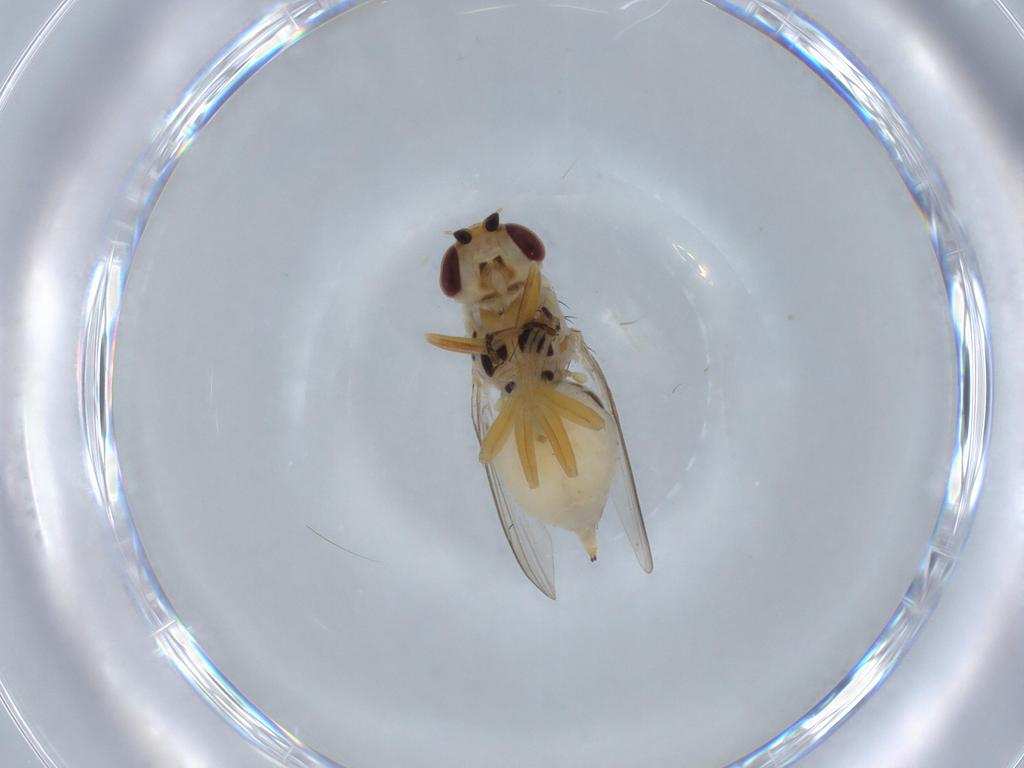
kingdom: Animalia
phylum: Arthropoda
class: Insecta
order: Diptera
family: Chloropidae
